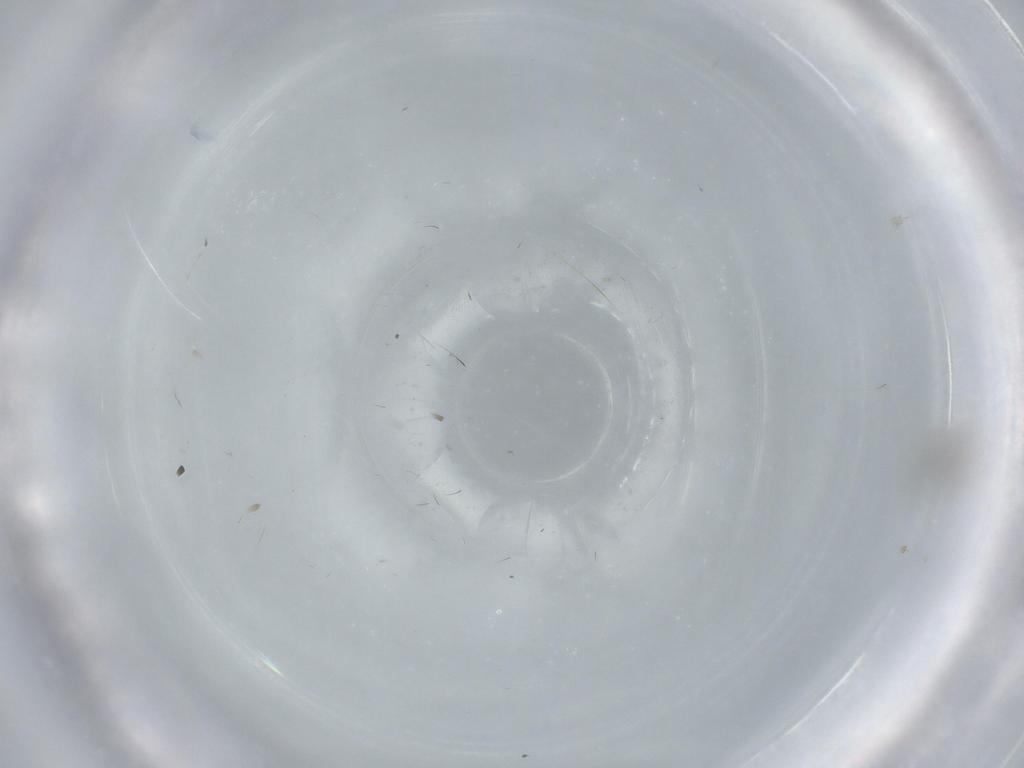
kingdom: Animalia
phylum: Arthropoda
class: Insecta
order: Diptera
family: Cecidomyiidae
